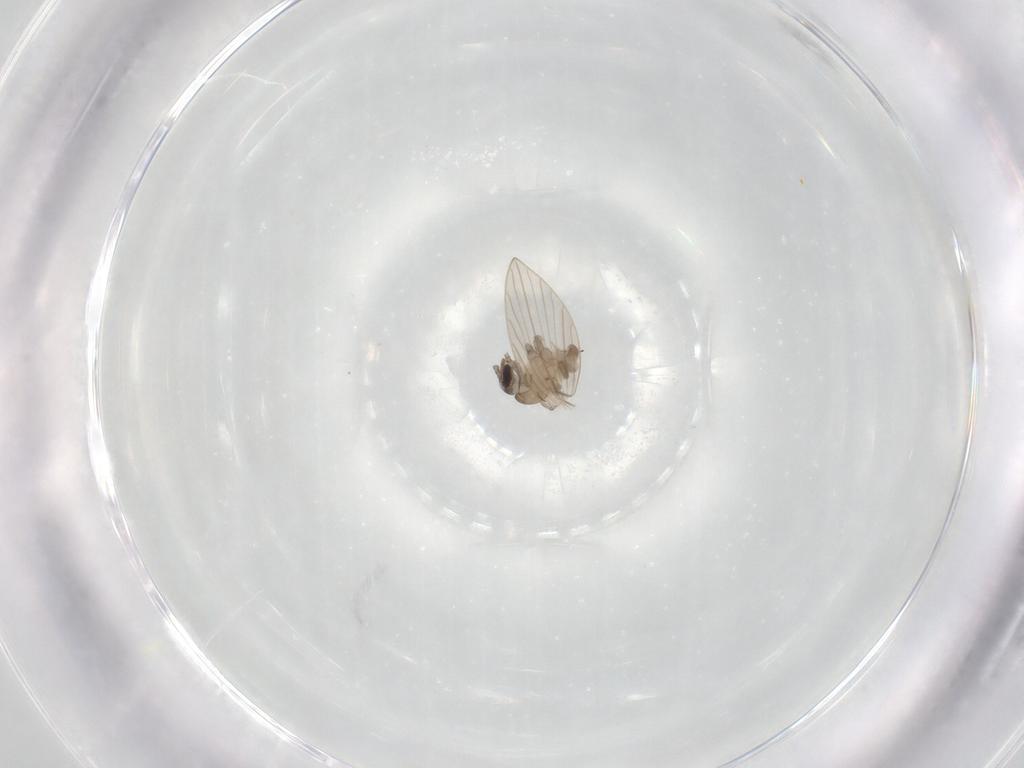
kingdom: Animalia
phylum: Arthropoda
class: Insecta
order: Diptera
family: Psychodidae
